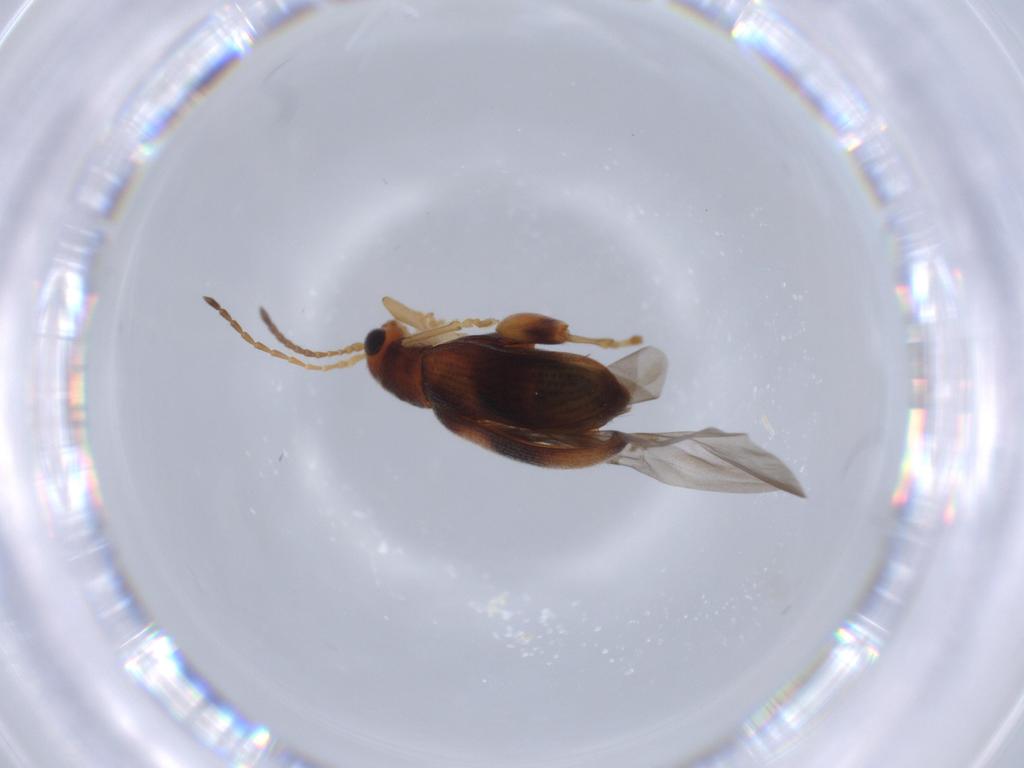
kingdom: Animalia
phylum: Arthropoda
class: Insecta
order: Coleoptera
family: Chrysomelidae
